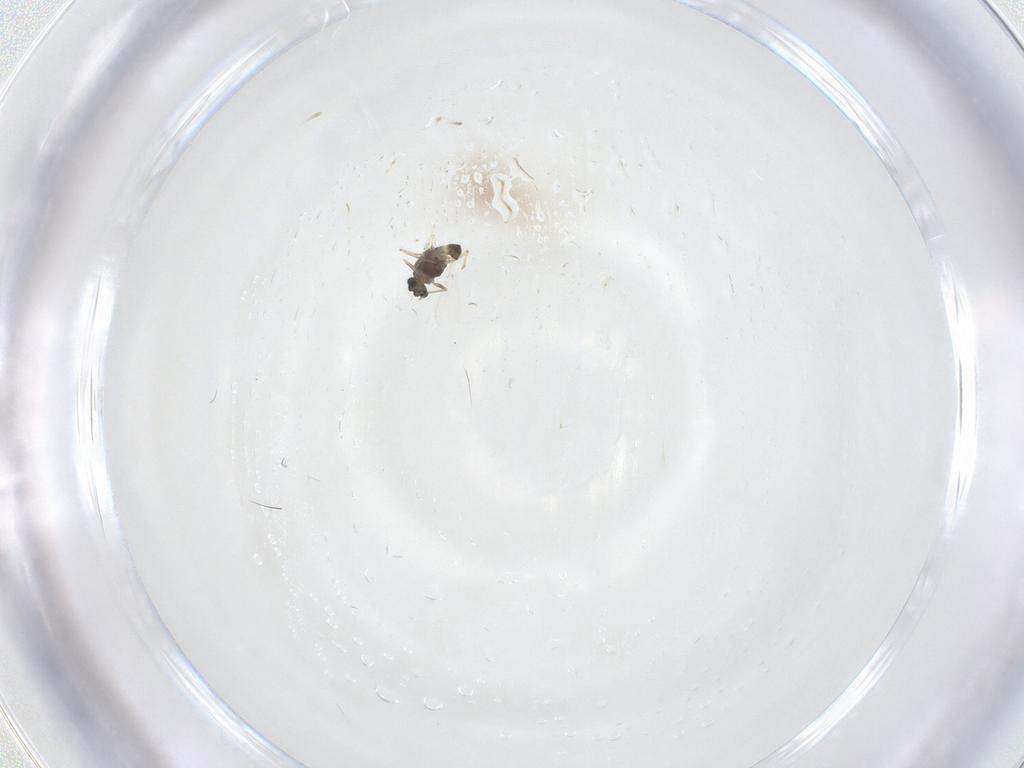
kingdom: Animalia
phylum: Arthropoda
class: Insecta
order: Diptera
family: Chironomidae
